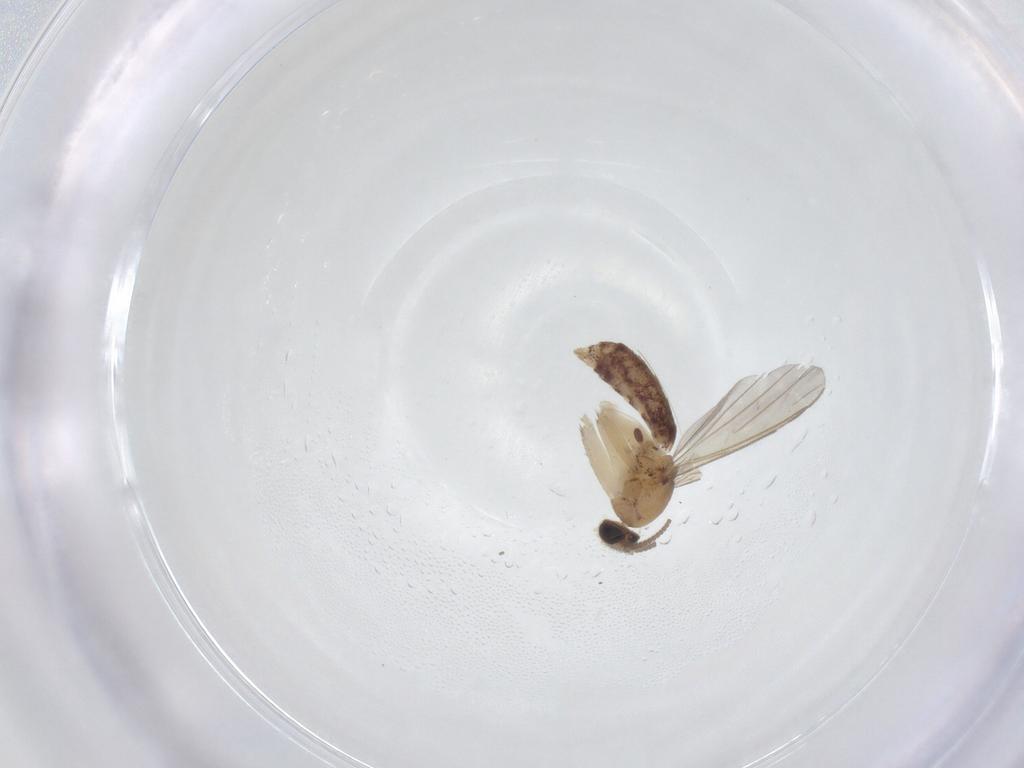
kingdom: Animalia
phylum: Arthropoda
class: Insecta
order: Diptera
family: Mycetophilidae
